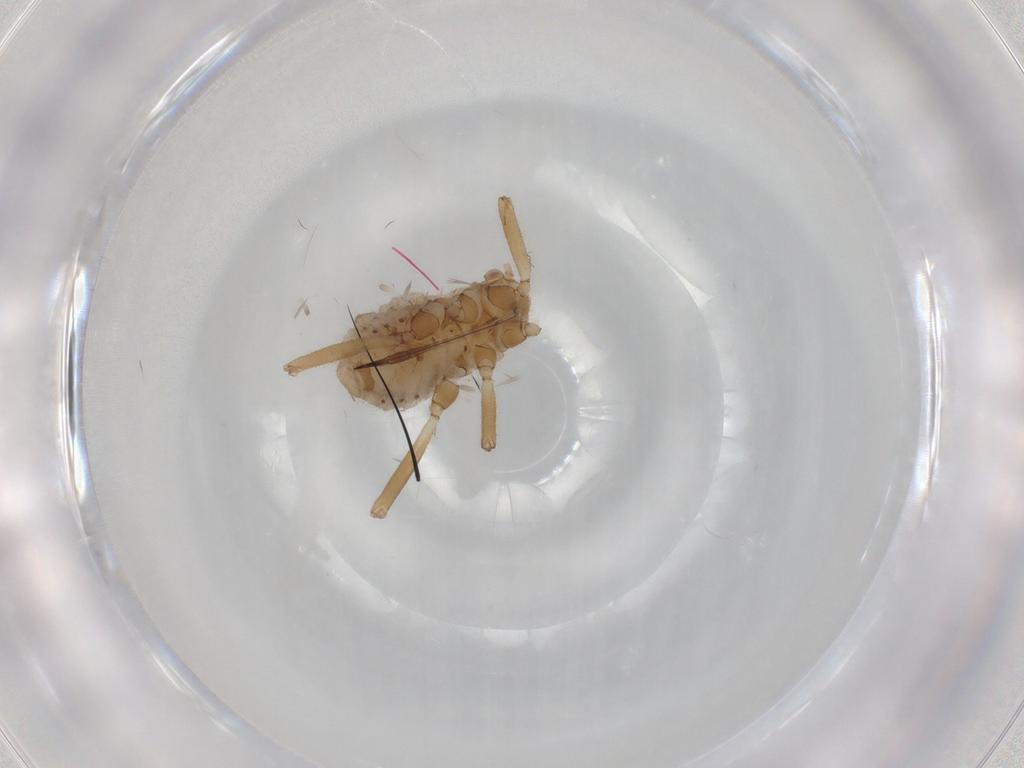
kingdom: Animalia
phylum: Arthropoda
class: Insecta
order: Hemiptera
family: Aphididae
